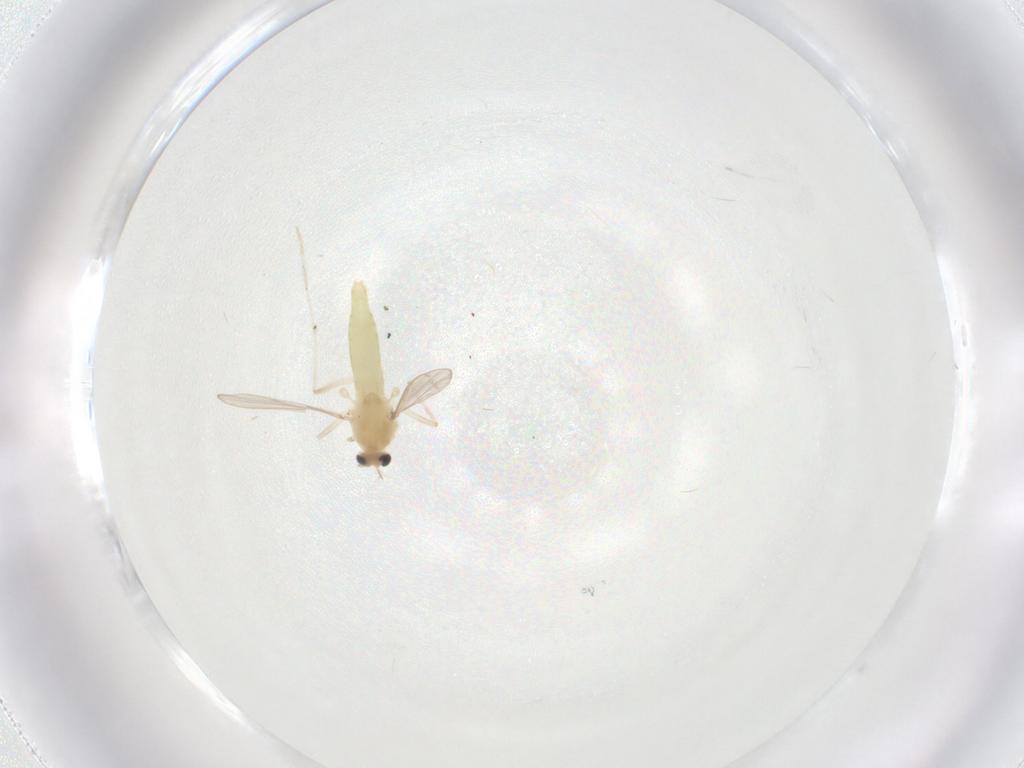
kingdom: Animalia
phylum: Arthropoda
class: Insecta
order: Diptera
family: Chironomidae
